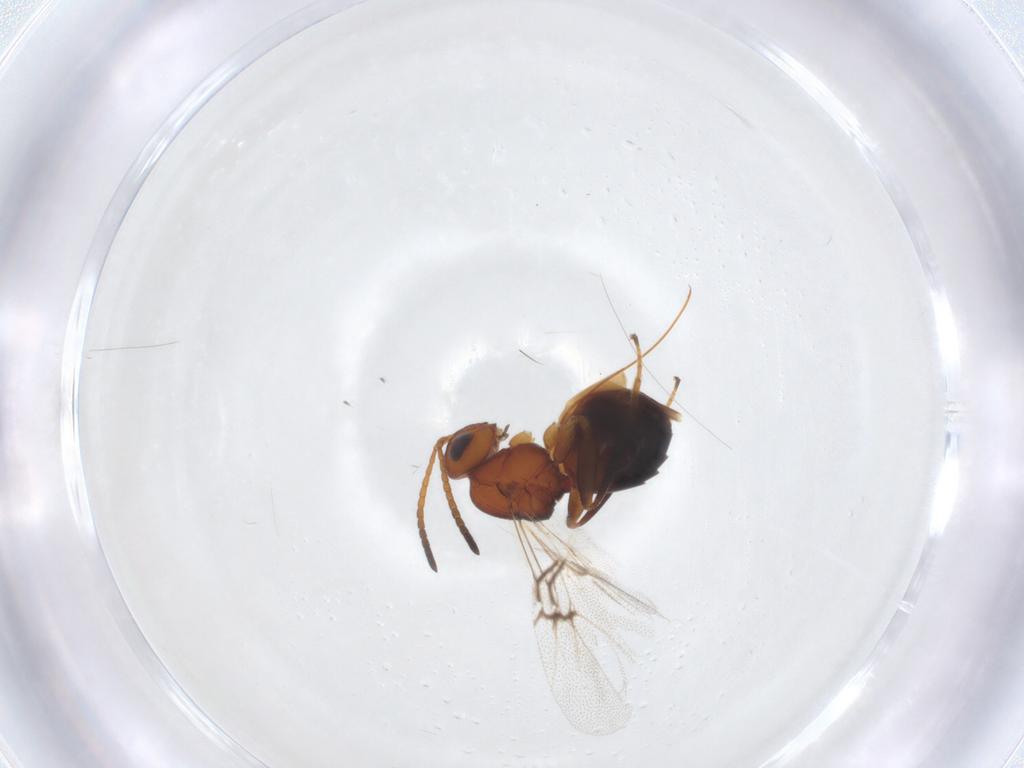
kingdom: Animalia
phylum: Arthropoda
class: Insecta
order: Hymenoptera
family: Cynipidae
